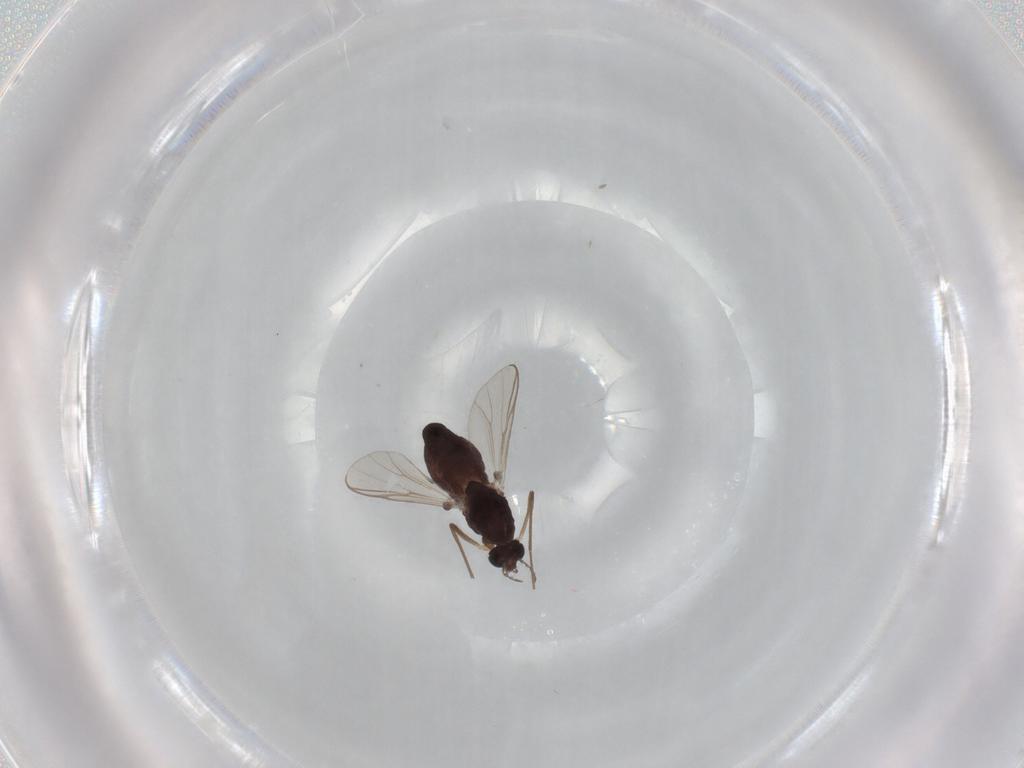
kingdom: Animalia
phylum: Arthropoda
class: Insecta
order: Diptera
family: Chironomidae
